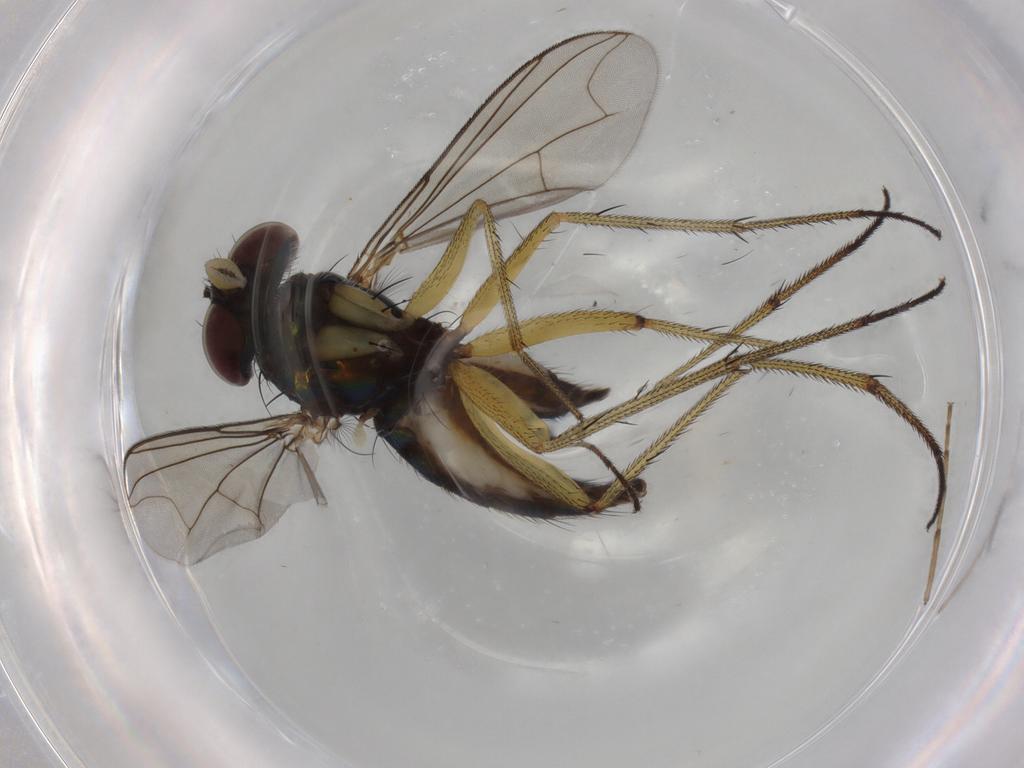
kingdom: Animalia
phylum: Arthropoda
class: Insecta
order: Diptera
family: Dolichopodidae
